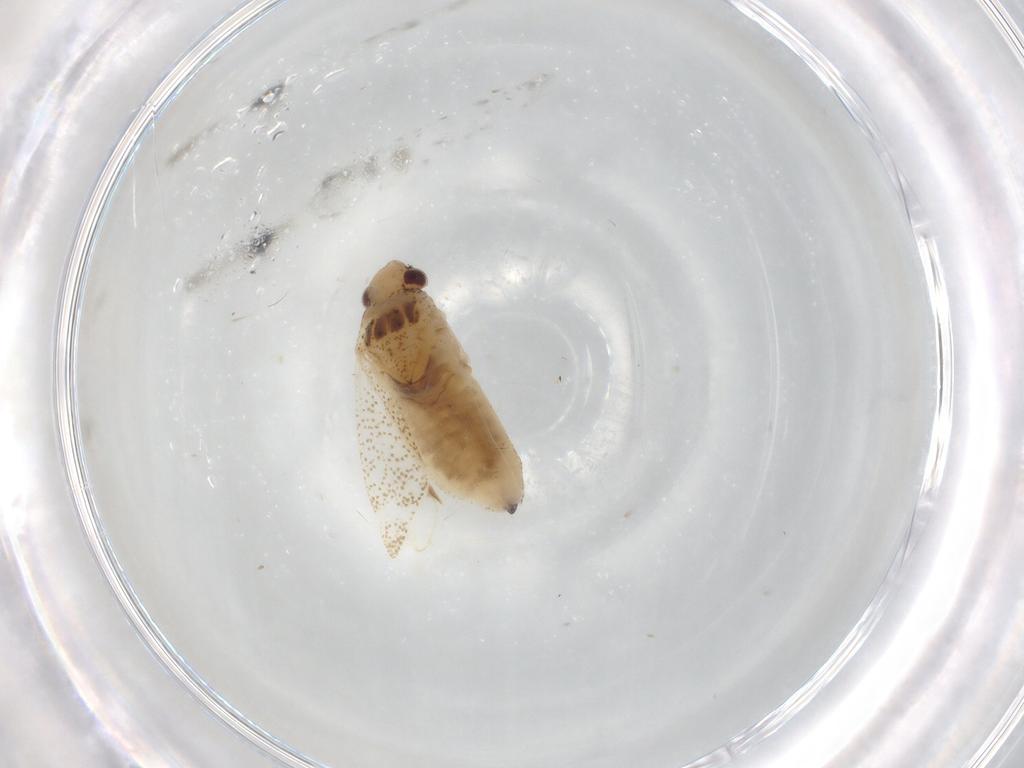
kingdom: Animalia
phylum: Arthropoda
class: Insecta
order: Hemiptera
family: Miridae
